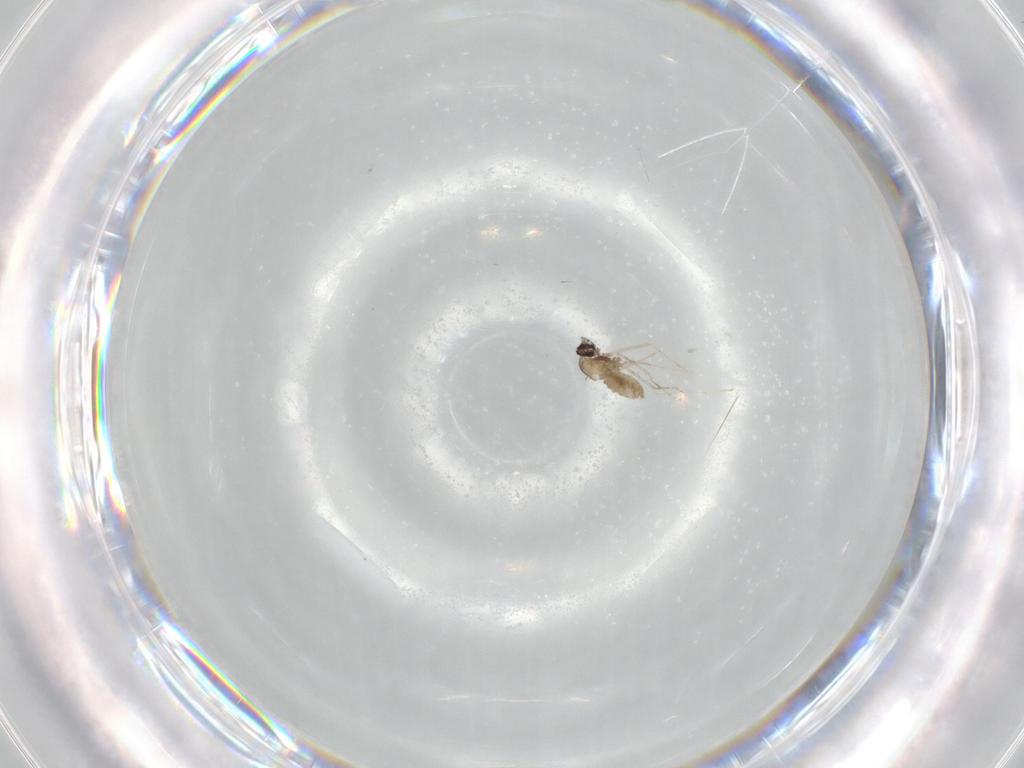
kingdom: Animalia
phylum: Arthropoda
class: Insecta
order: Diptera
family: Cecidomyiidae
